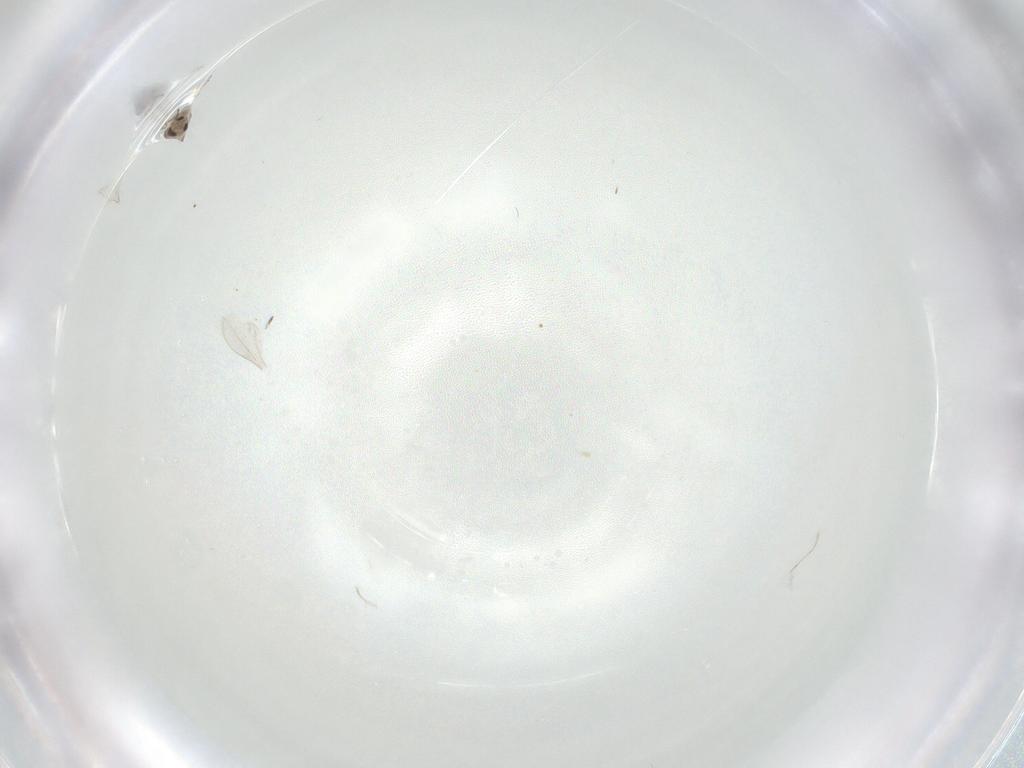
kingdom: Animalia
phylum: Arthropoda
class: Insecta
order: Diptera
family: Cecidomyiidae
